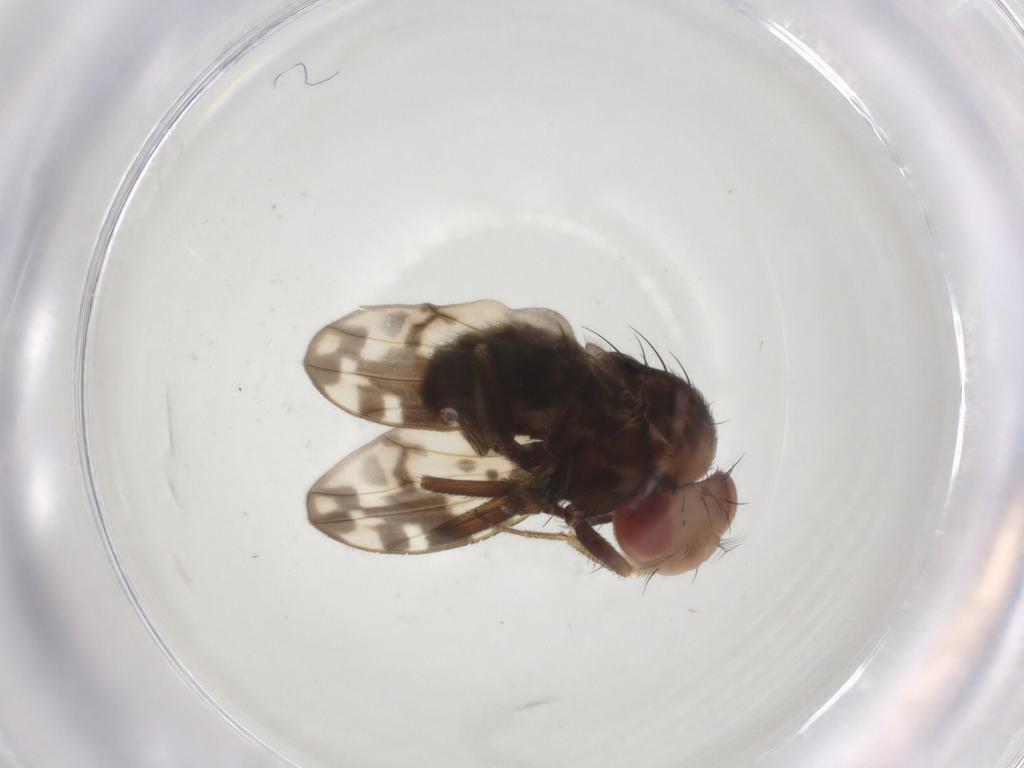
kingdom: Animalia
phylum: Arthropoda
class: Insecta
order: Diptera
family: Drosophilidae
